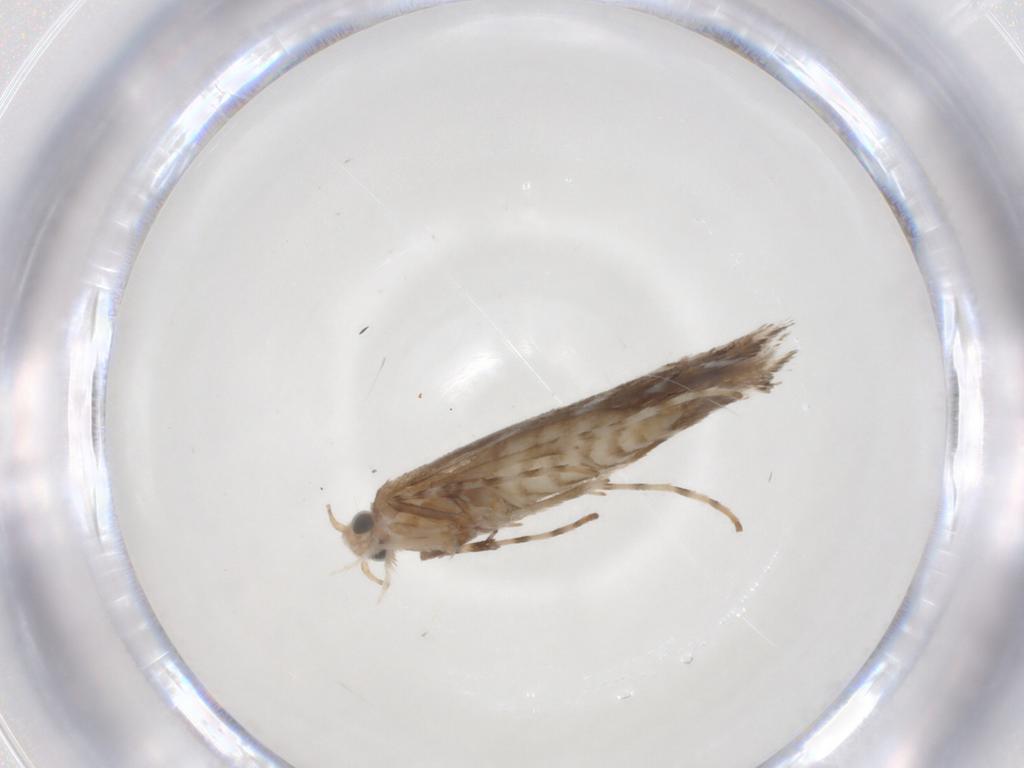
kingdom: Animalia
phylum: Arthropoda
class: Insecta
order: Lepidoptera
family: Gracillariidae
